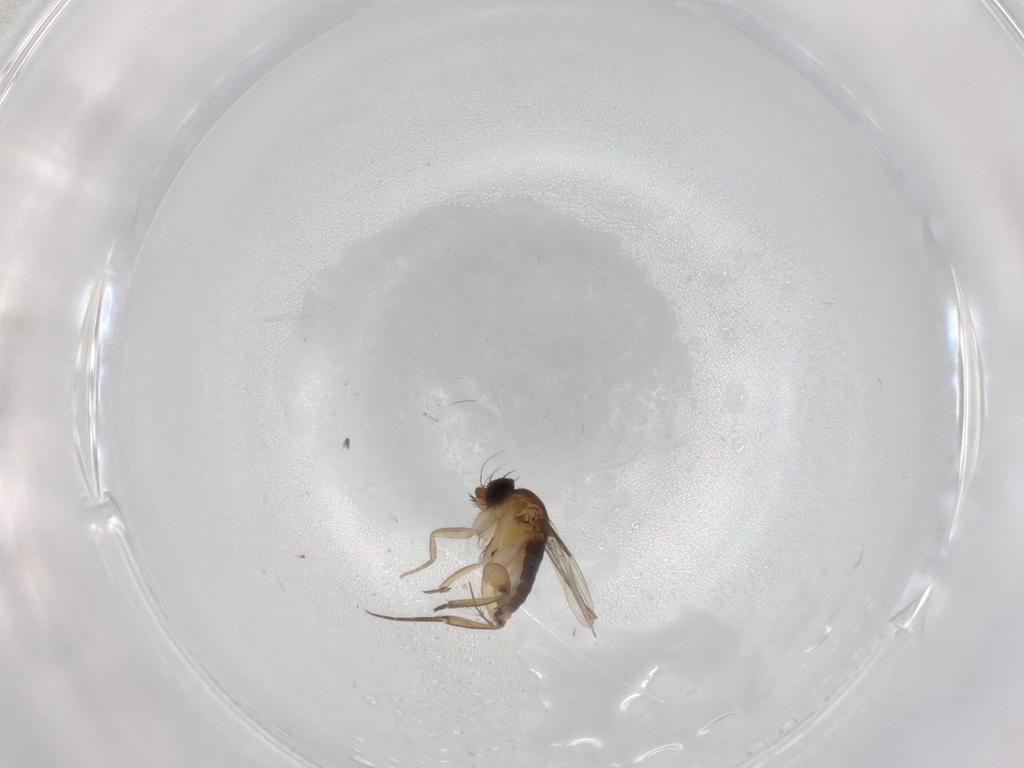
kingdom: Animalia
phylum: Arthropoda
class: Insecta
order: Diptera
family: Phoridae
